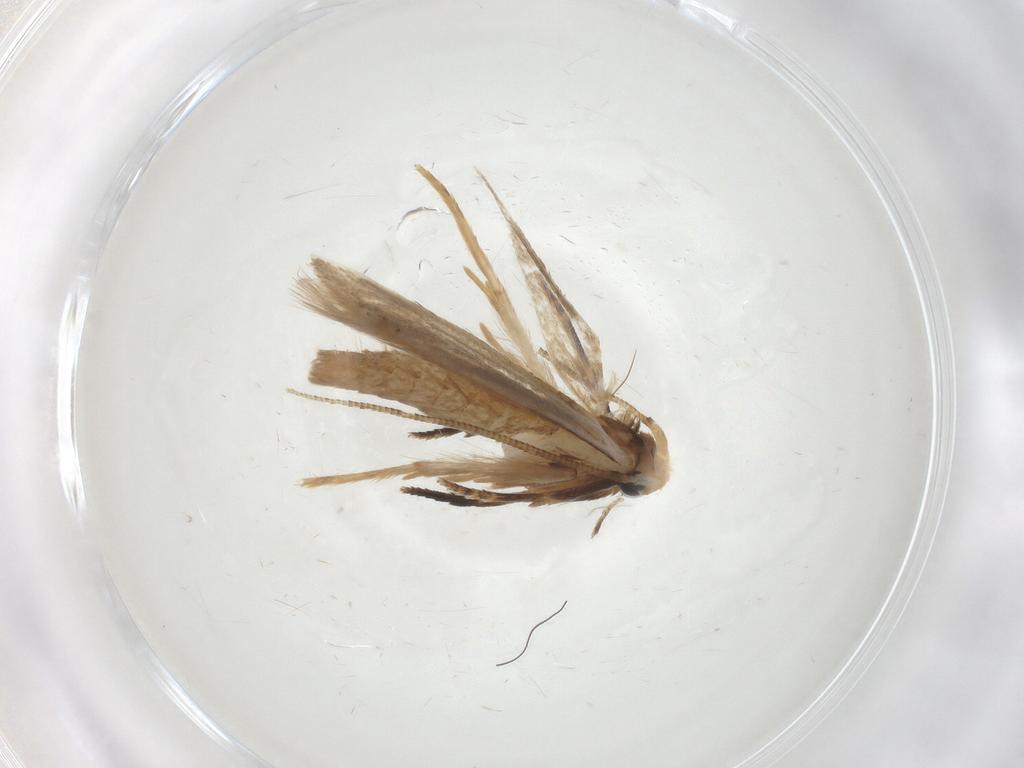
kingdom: Animalia
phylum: Arthropoda
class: Insecta
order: Lepidoptera
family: Tineidae
